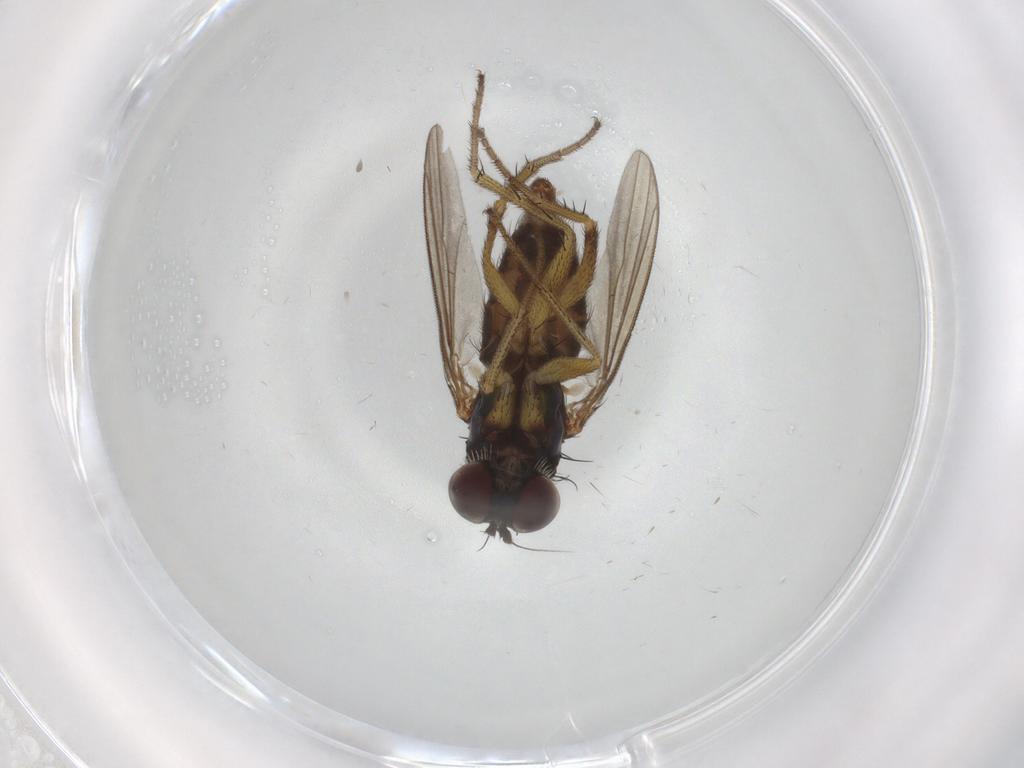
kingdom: Animalia
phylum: Arthropoda
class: Insecta
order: Diptera
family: Dolichopodidae
